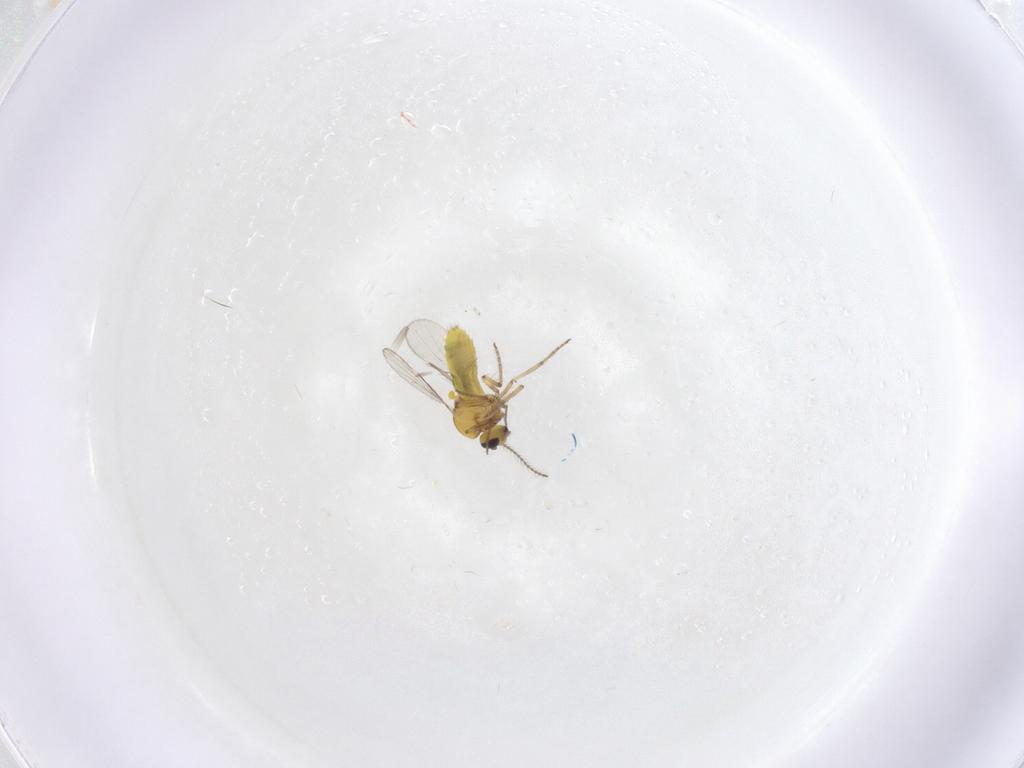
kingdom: Animalia
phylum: Arthropoda
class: Insecta
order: Diptera
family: Ceratopogonidae
